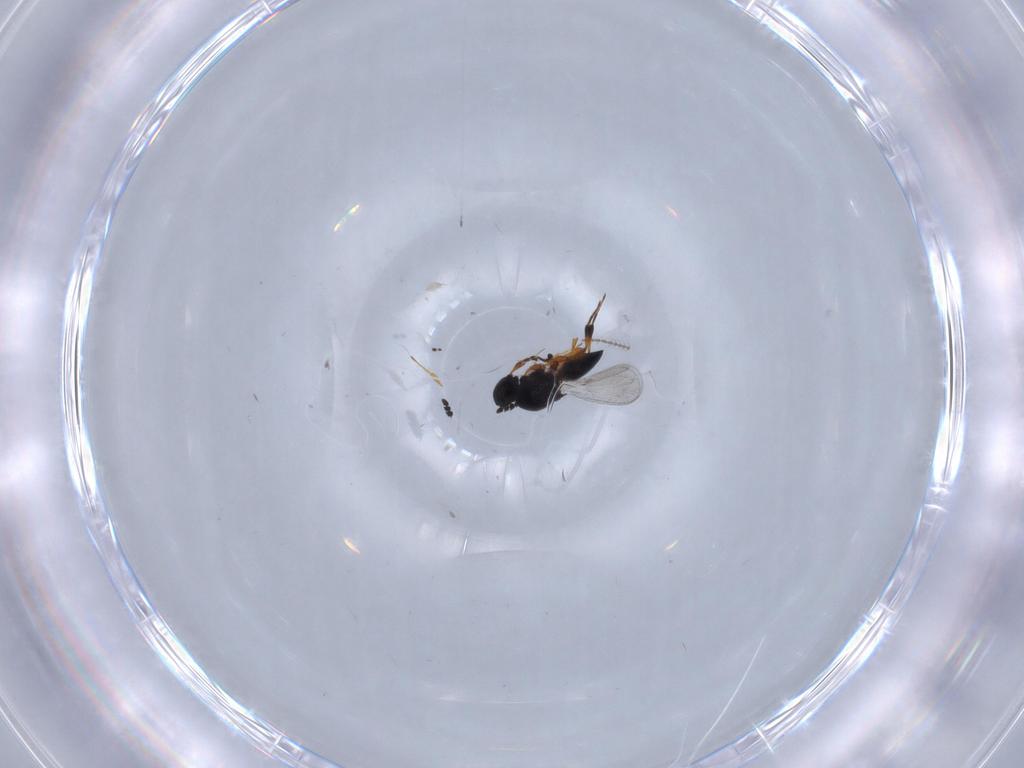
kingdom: Animalia
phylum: Arthropoda
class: Insecta
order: Hymenoptera
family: Platygastridae
